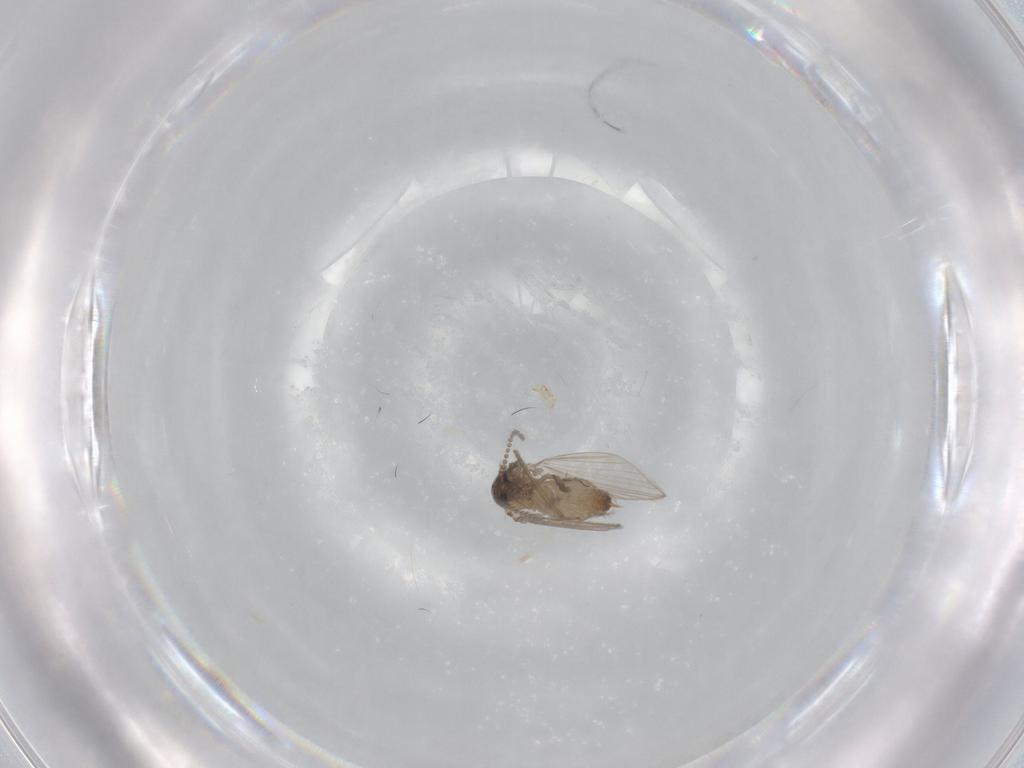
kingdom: Animalia
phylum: Arthropoda
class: Insecta
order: Diptera
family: Psychodidae
